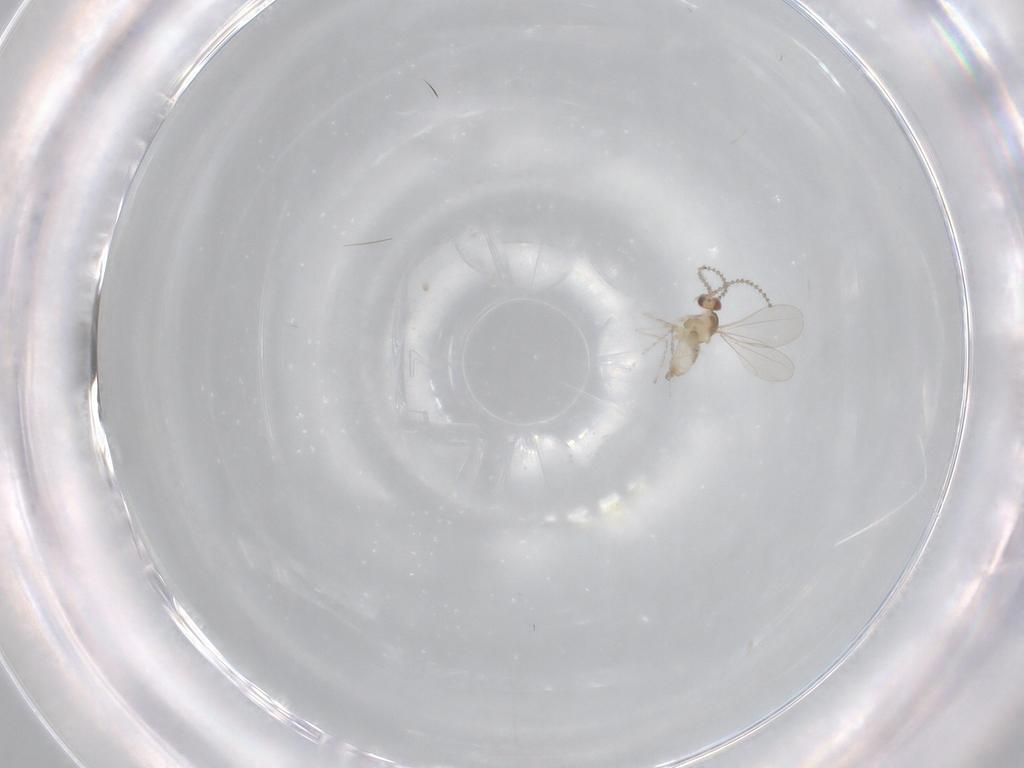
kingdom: Animalia
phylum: Arthropoda
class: Insecta
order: Diptera
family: Cecidomyiidae
